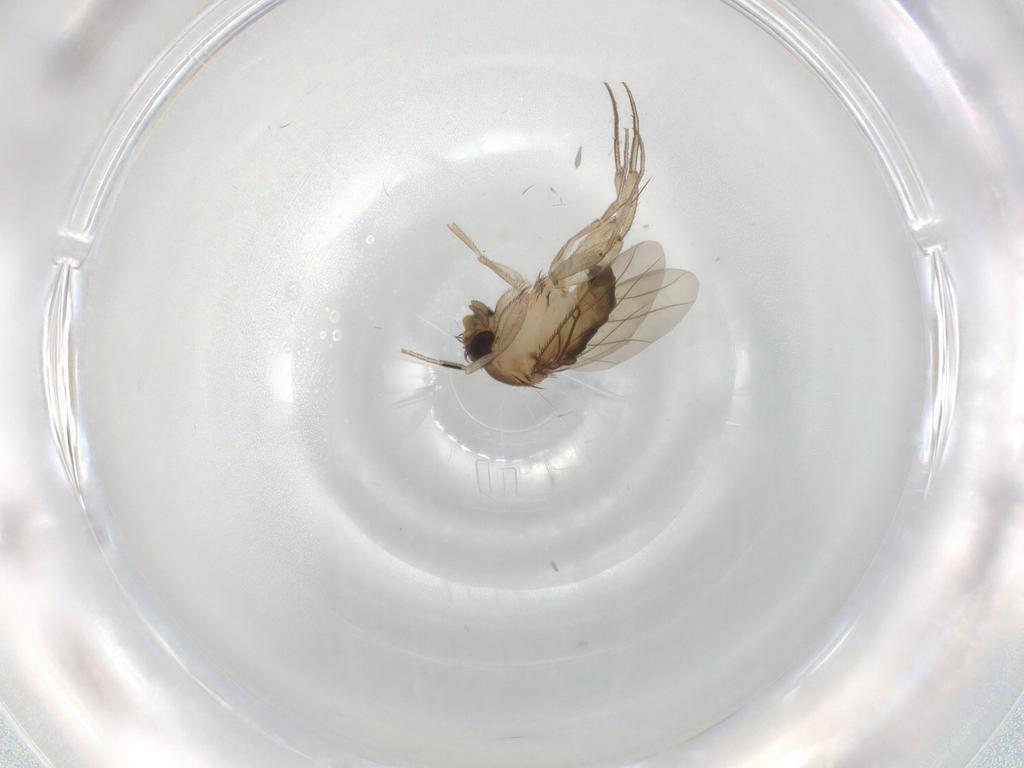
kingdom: Animalia
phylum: Arthropoda
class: Insecta
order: Diptera
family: Phoridae
